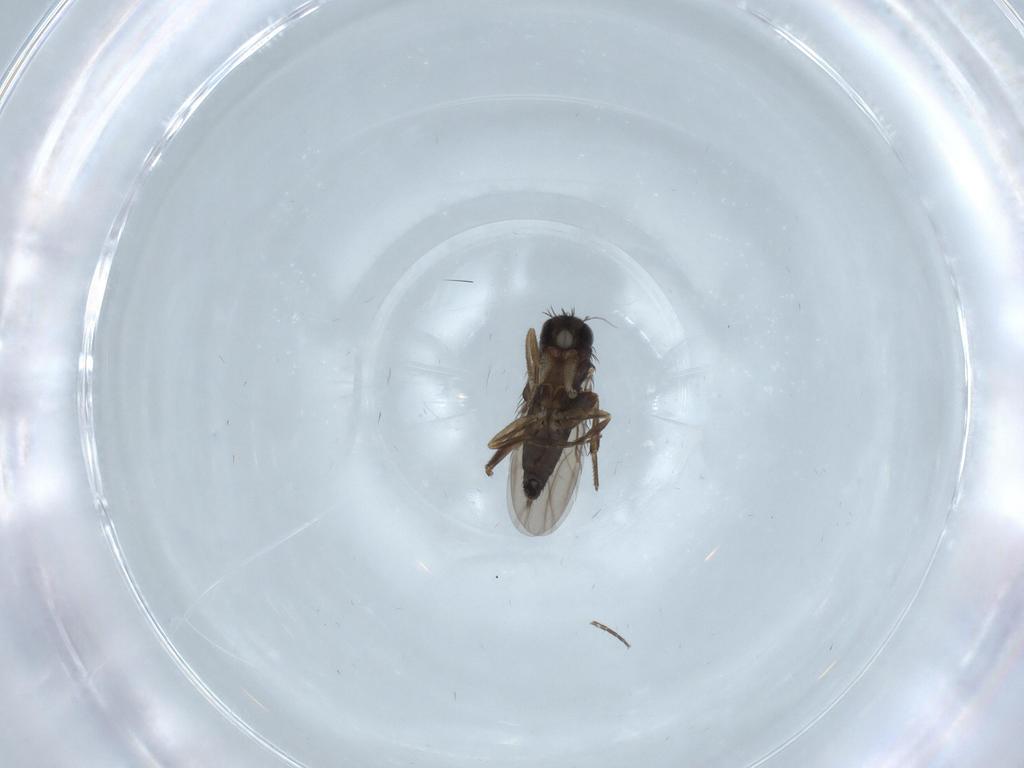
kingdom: Animalia
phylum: Arthropoda
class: Insecta
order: Diptera
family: Phoridae
